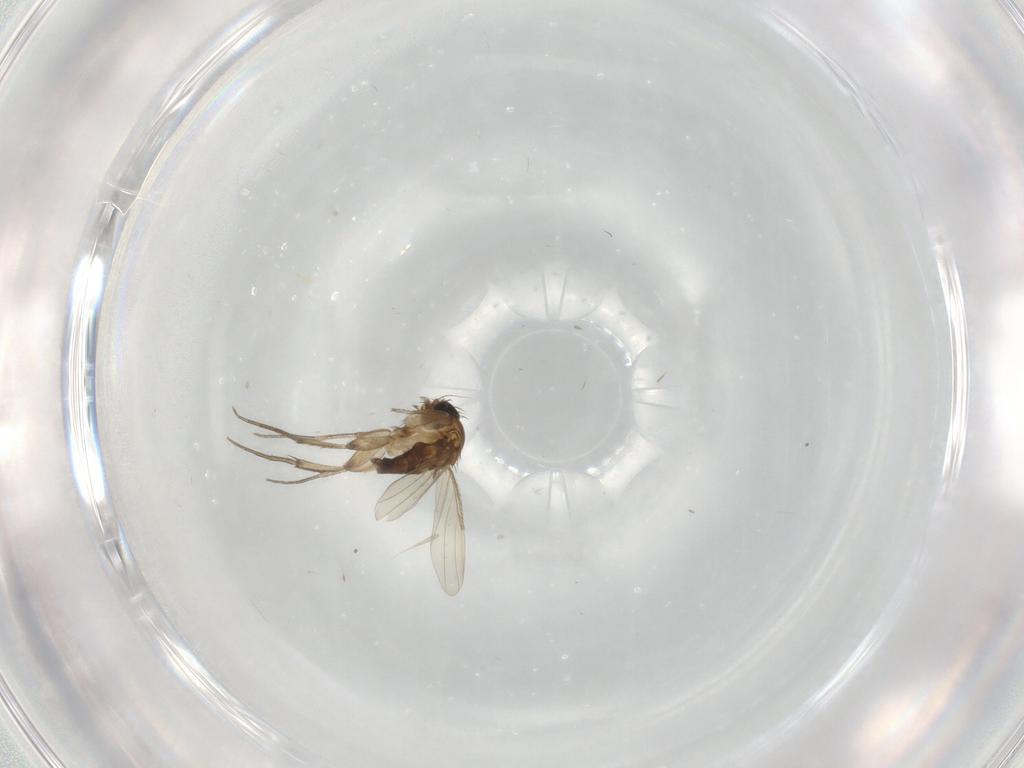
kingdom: Animalia
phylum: Arthropoda
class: Insecta
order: Diptera
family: Phoridae
